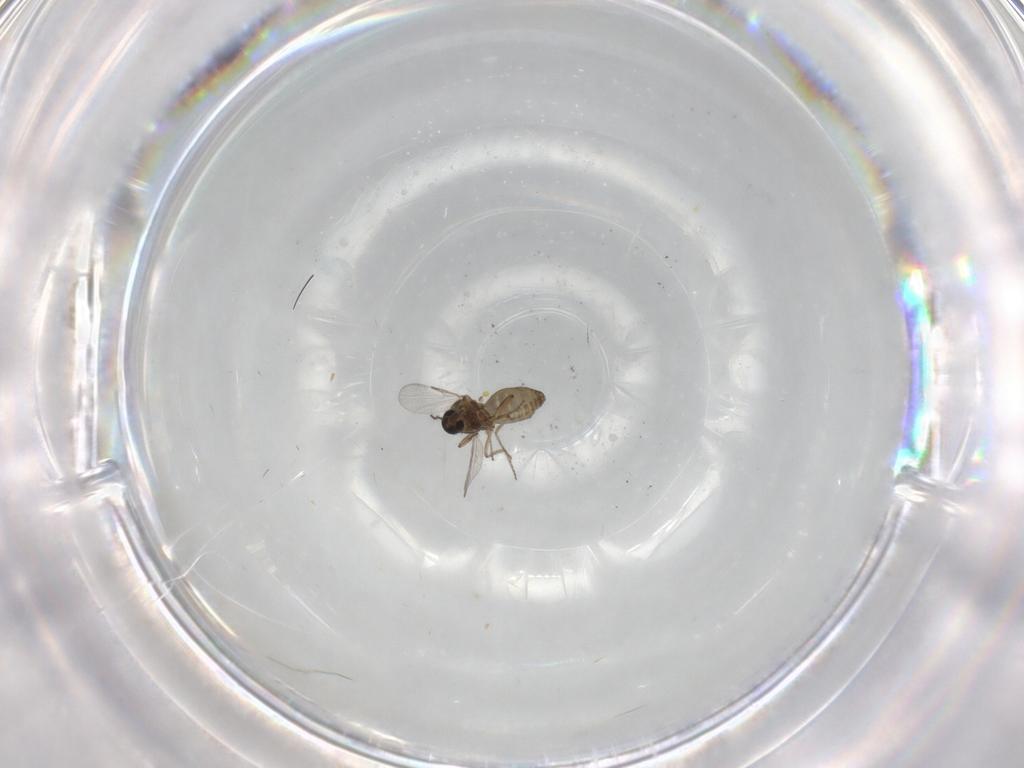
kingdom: Animalia
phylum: Arthropoda
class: Insecta
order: Diptera
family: Ceratopogonidae
